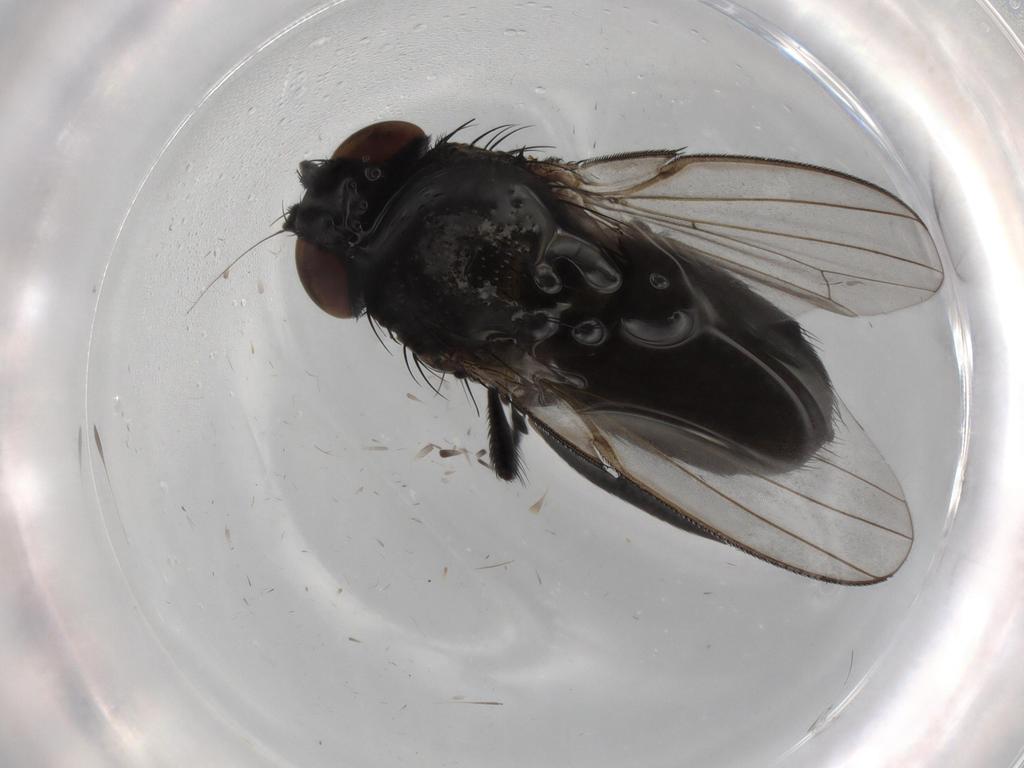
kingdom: Animalia
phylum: Arthropoda
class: Insecta
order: Diptera
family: Milichiidae
